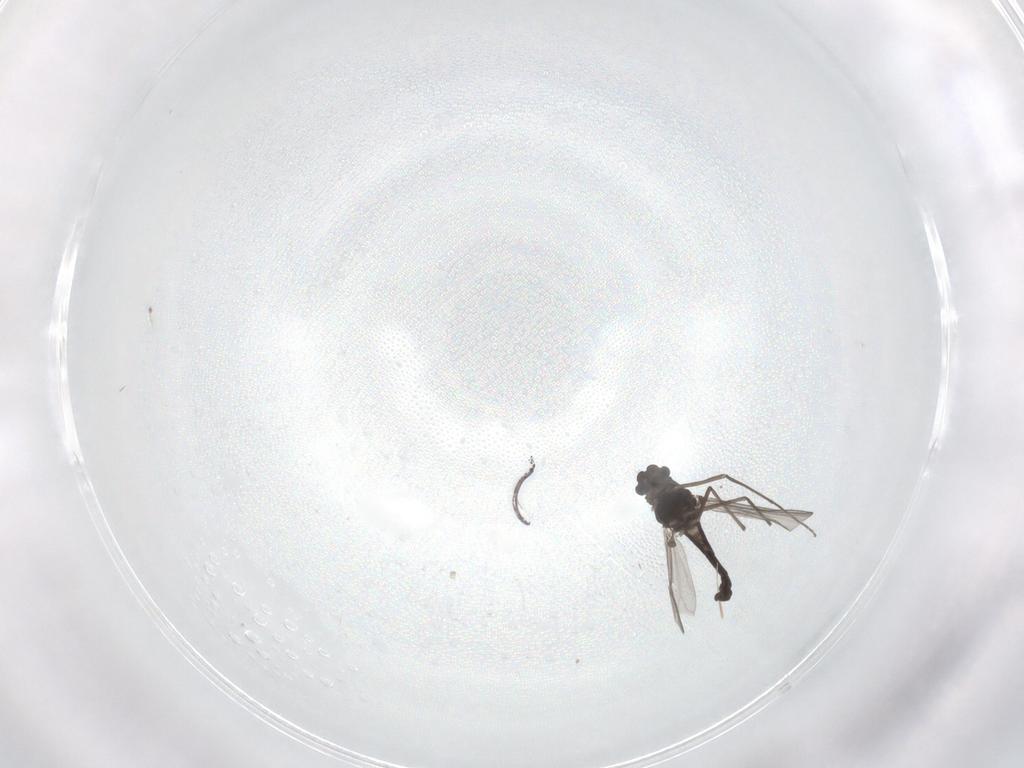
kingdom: Animalia
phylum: Arthropoda
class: Insecta
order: Diptera
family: Chironomidae
